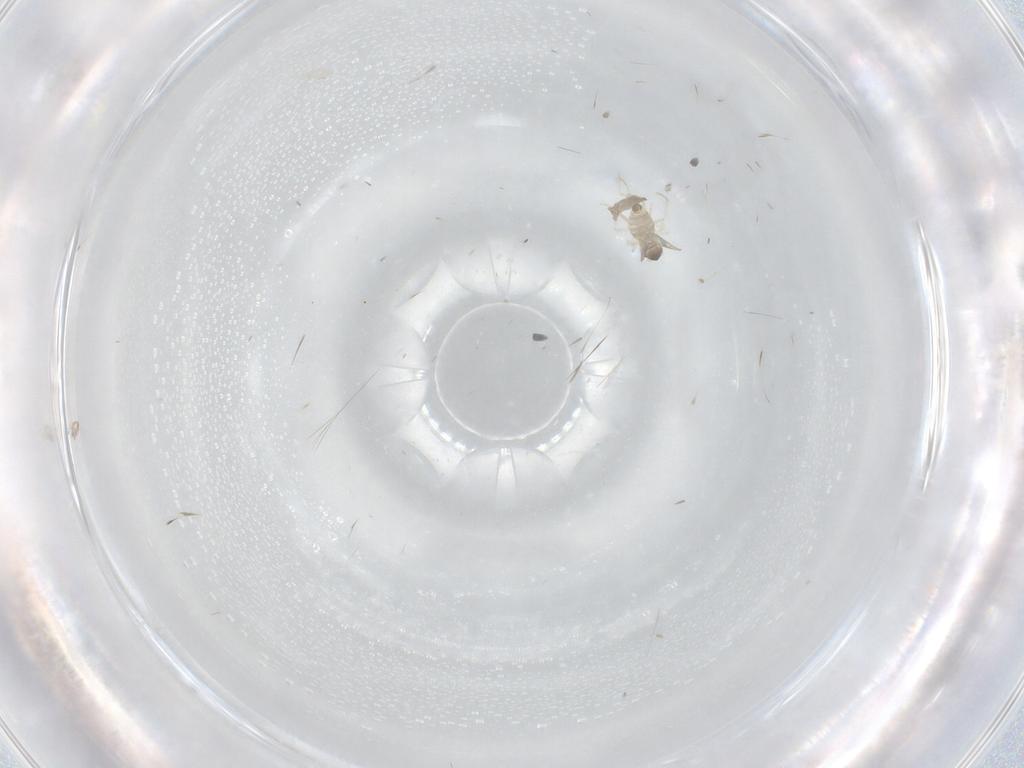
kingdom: Animalia
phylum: Arthropoda
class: Insecta
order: Diptera
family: Cecidomyiidae
